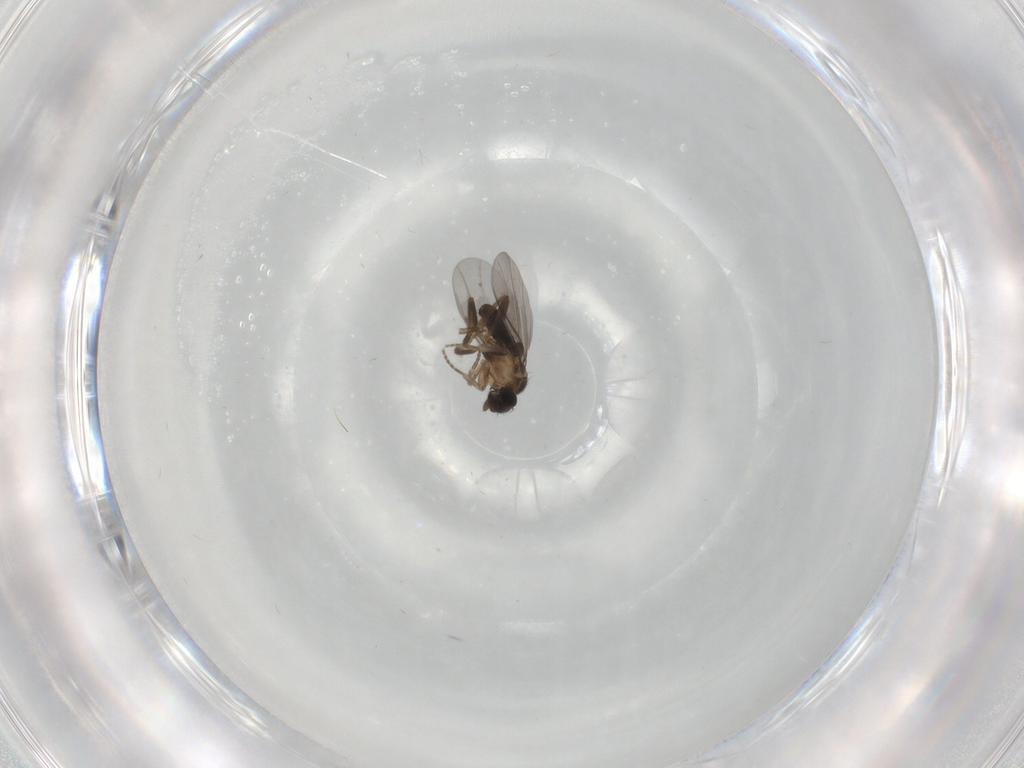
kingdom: Animalia
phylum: Arthropoda
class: Insecta
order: Diptera
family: Phoridae
